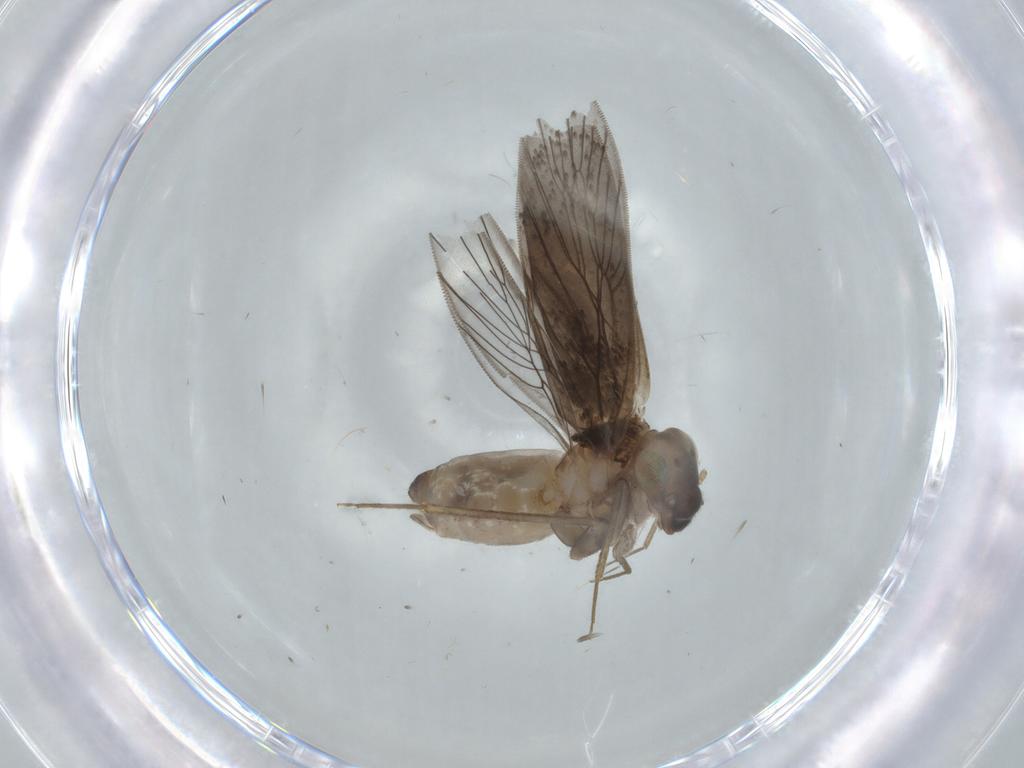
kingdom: Animalia
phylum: Arthropoda
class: Insecta
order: Psocodea
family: Lepidopsocidae
